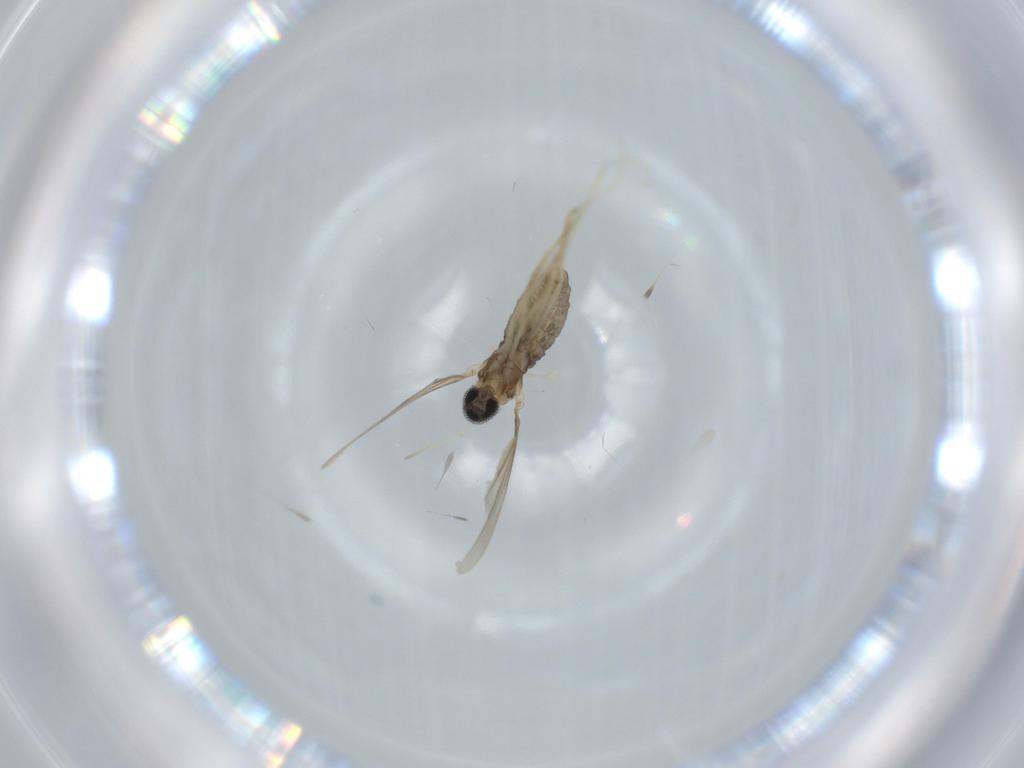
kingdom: Animalia
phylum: Arthropoda
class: Insecta
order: Diptera
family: Cecidomyiidae
